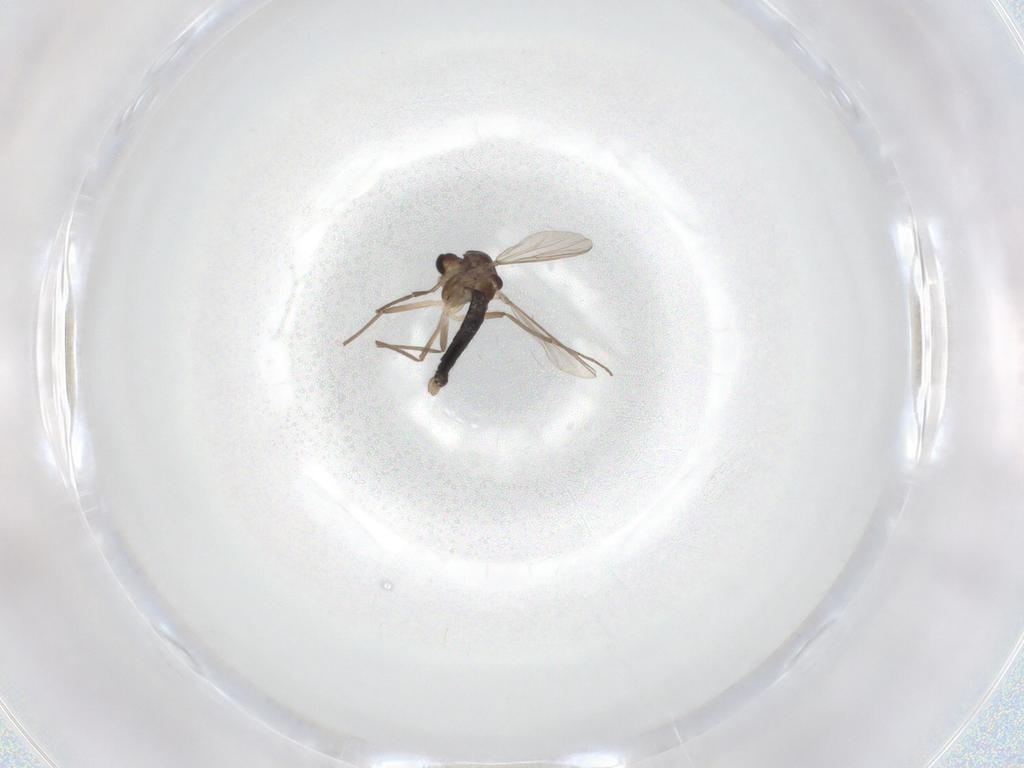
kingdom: Animalia
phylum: Arthropoda
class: Insecta
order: Diptera
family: Chironomidae
